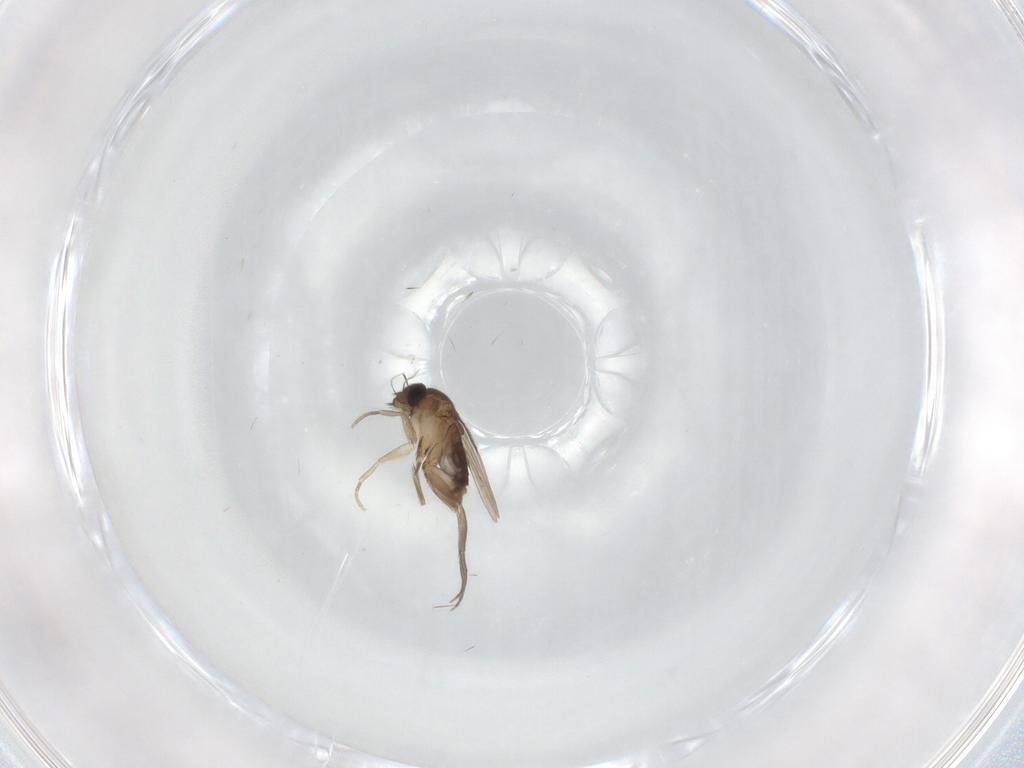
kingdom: Animalia
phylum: Arthropoda
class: Insecta
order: Diptera
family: Phoridae
